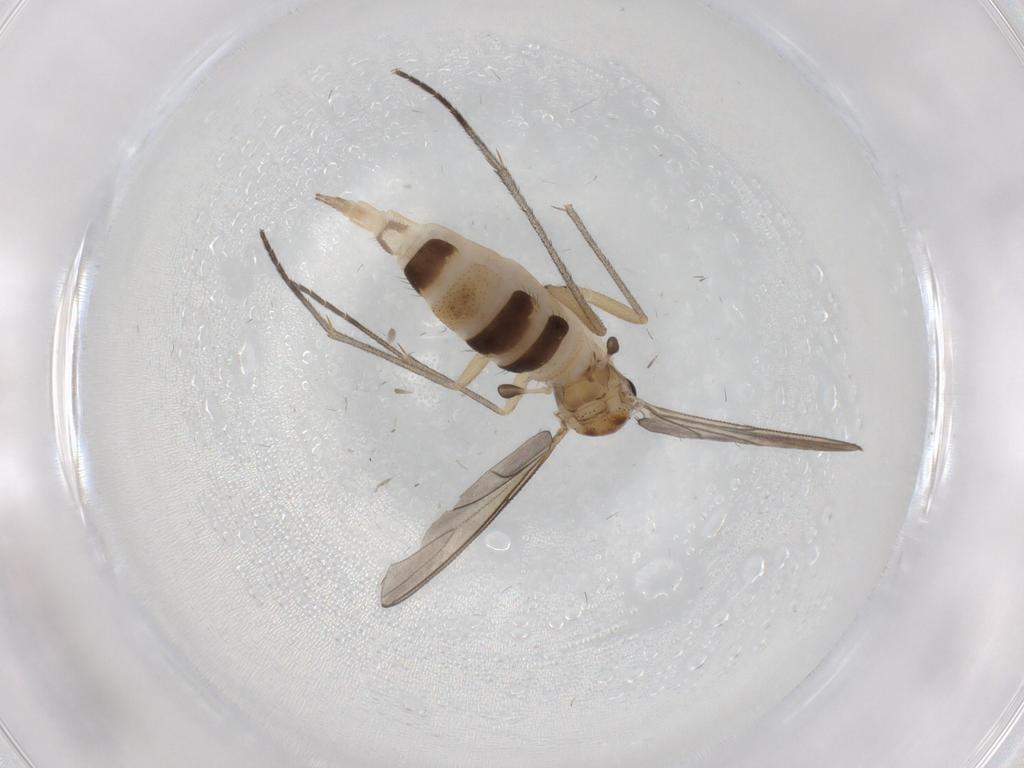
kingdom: Animalia
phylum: Arthropoda
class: Insecta
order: Diptera
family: Ceratopogonidae
